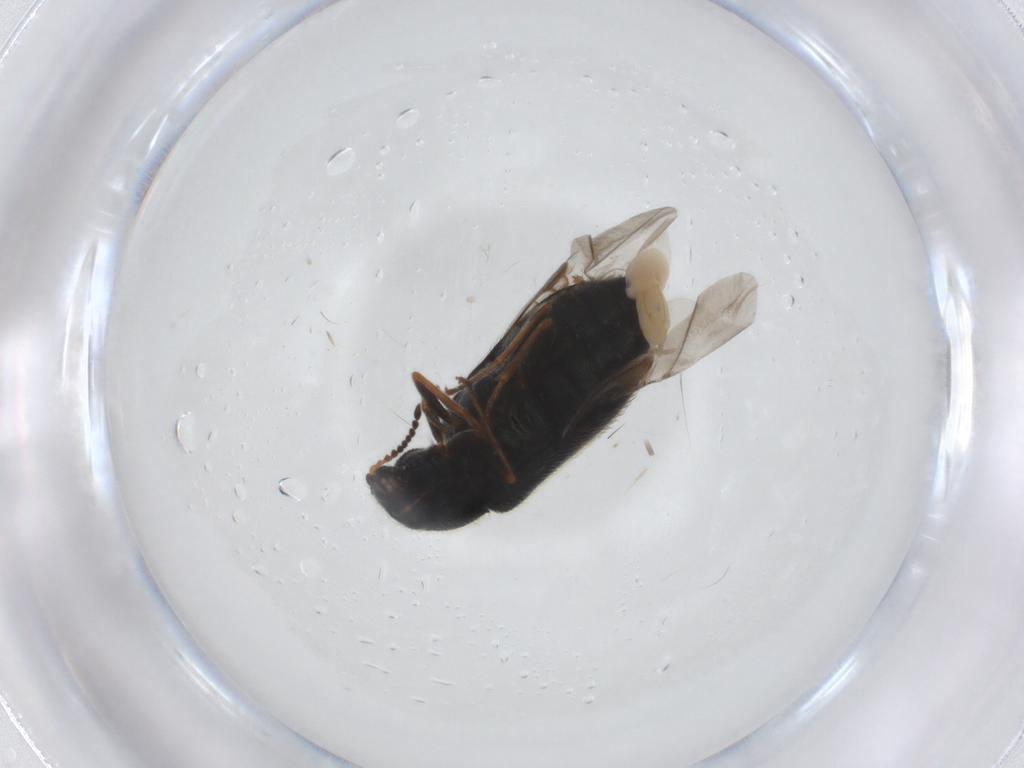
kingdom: Animalia
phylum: Arthropoda
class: Insecta
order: Coleoptera
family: Melyridae
